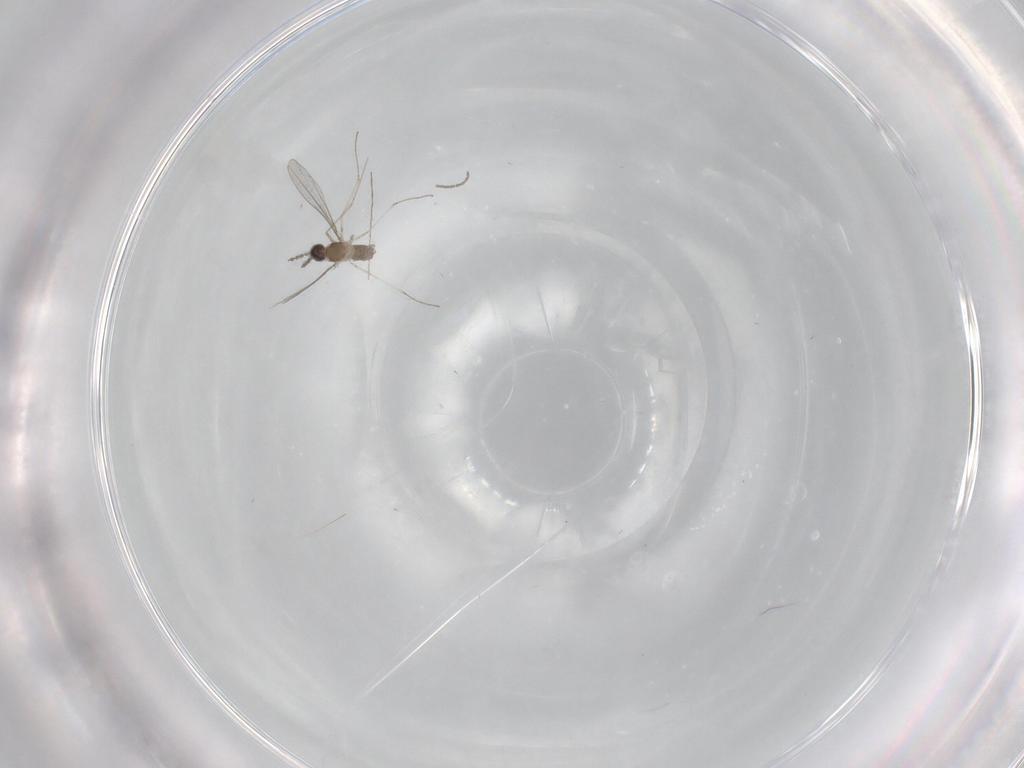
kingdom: Animalia
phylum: Arthropoda
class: Insecta
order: Diptera
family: Cecidomyiidae
